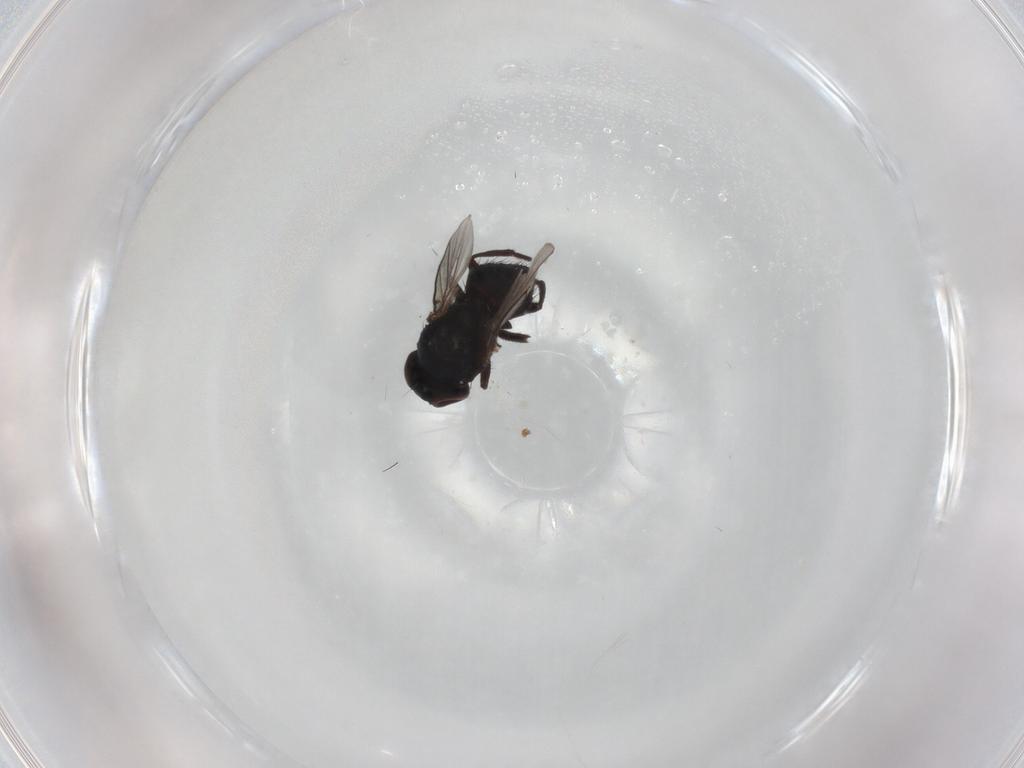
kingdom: Animalia
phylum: Arthropoda
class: Insecta
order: Diptera
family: Agromyzidae
